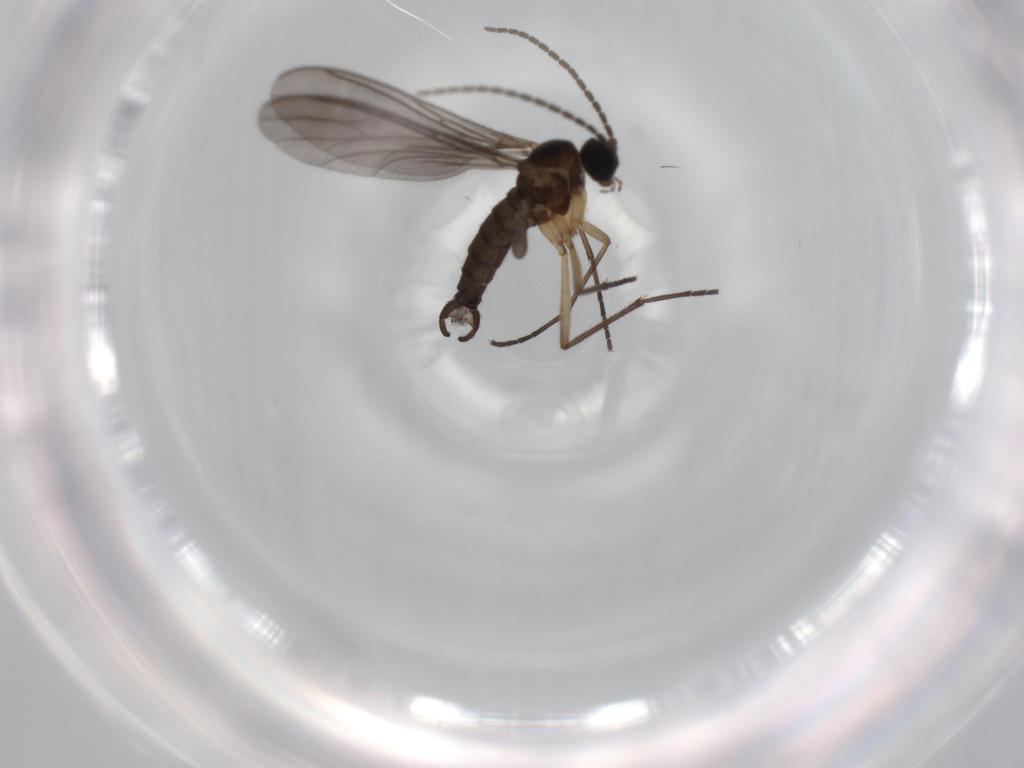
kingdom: Animalia
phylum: Arthropoda
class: Insecta
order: Diptera
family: Sciaridae
